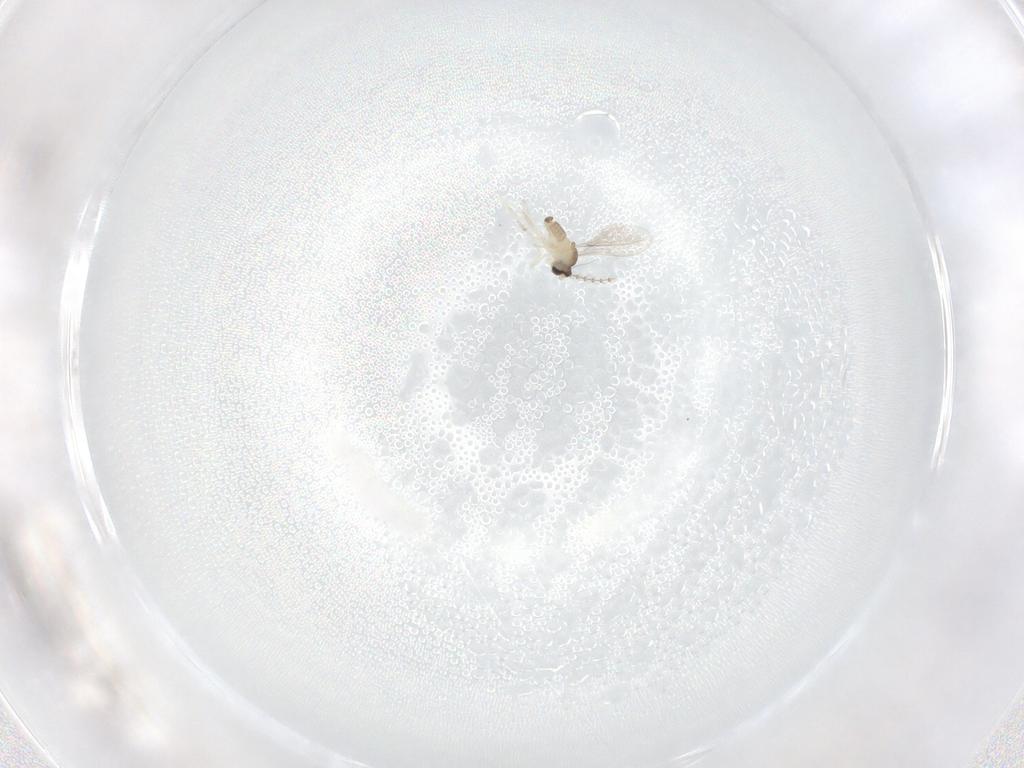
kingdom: Animalia
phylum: Arthropoda
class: Insecta
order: Diptera
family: Cecidomyiidae
